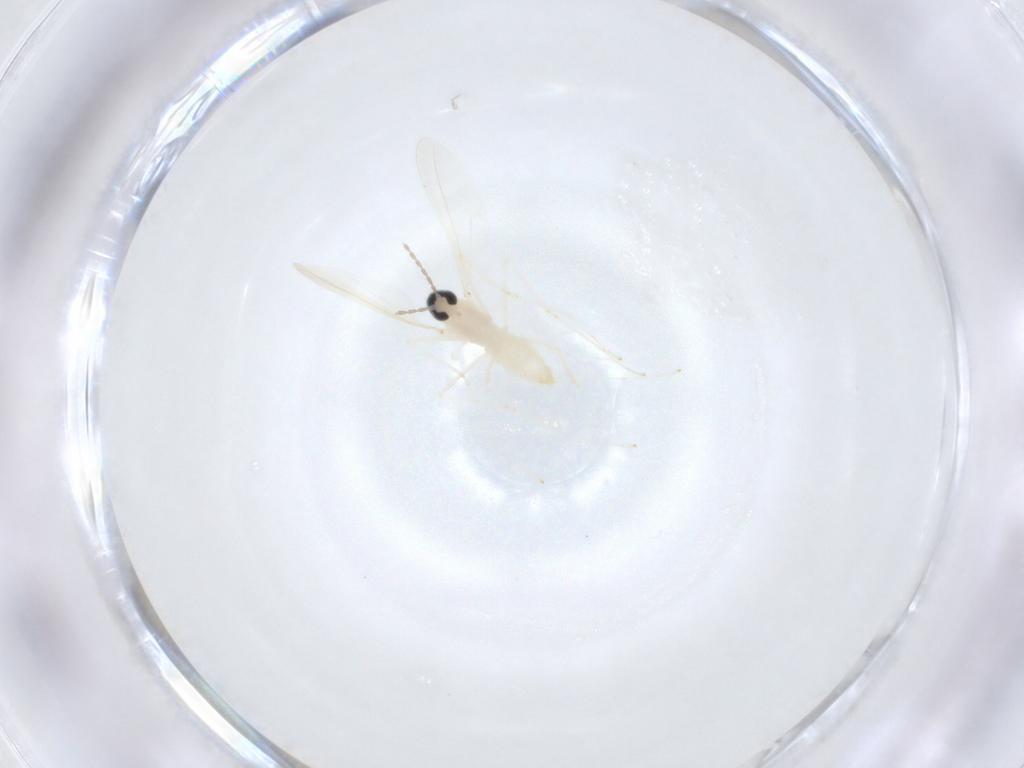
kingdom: Animalia
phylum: Arthropoda
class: Insecta
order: Diptera
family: Cecidomyiidae
